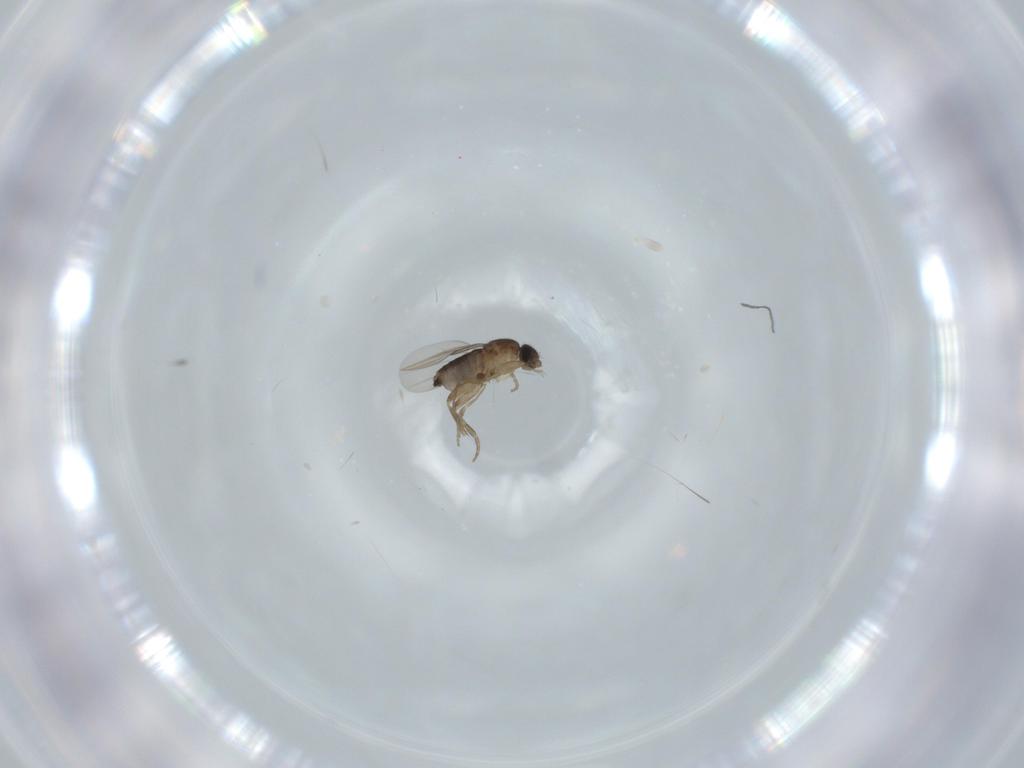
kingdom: Animalia
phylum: Arthropoda
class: Insecta
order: Diptera
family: Phoridae
